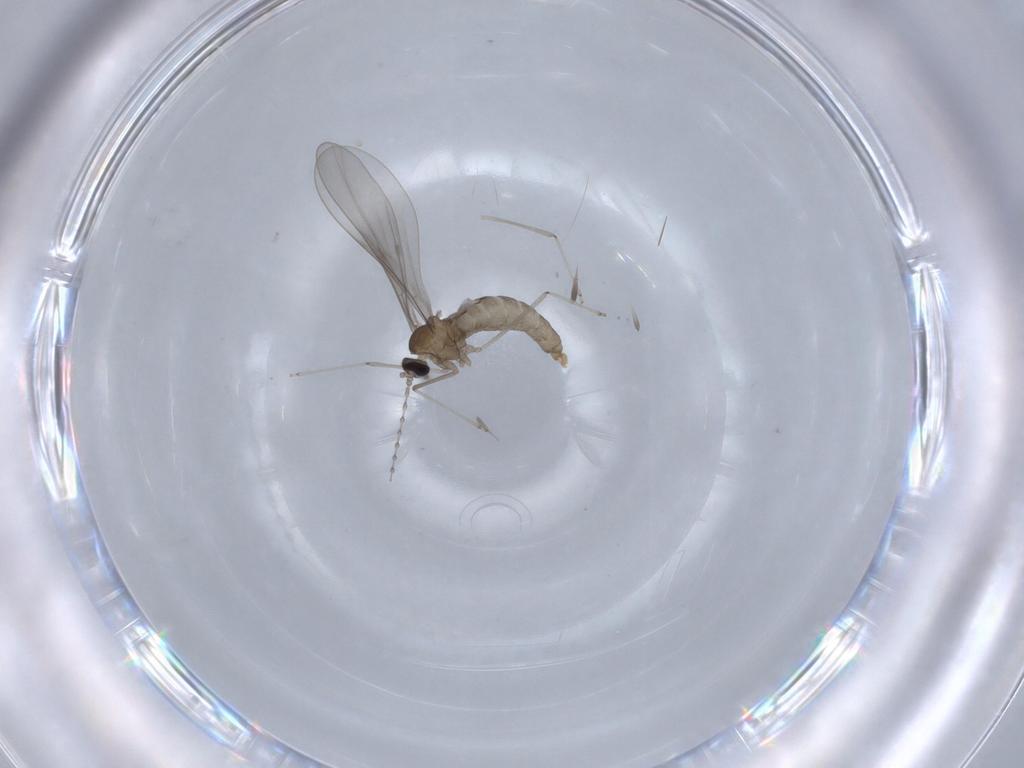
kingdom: Animalia
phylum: Arthropoda
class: Insecta
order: Diptera
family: Cecidomyiidae
